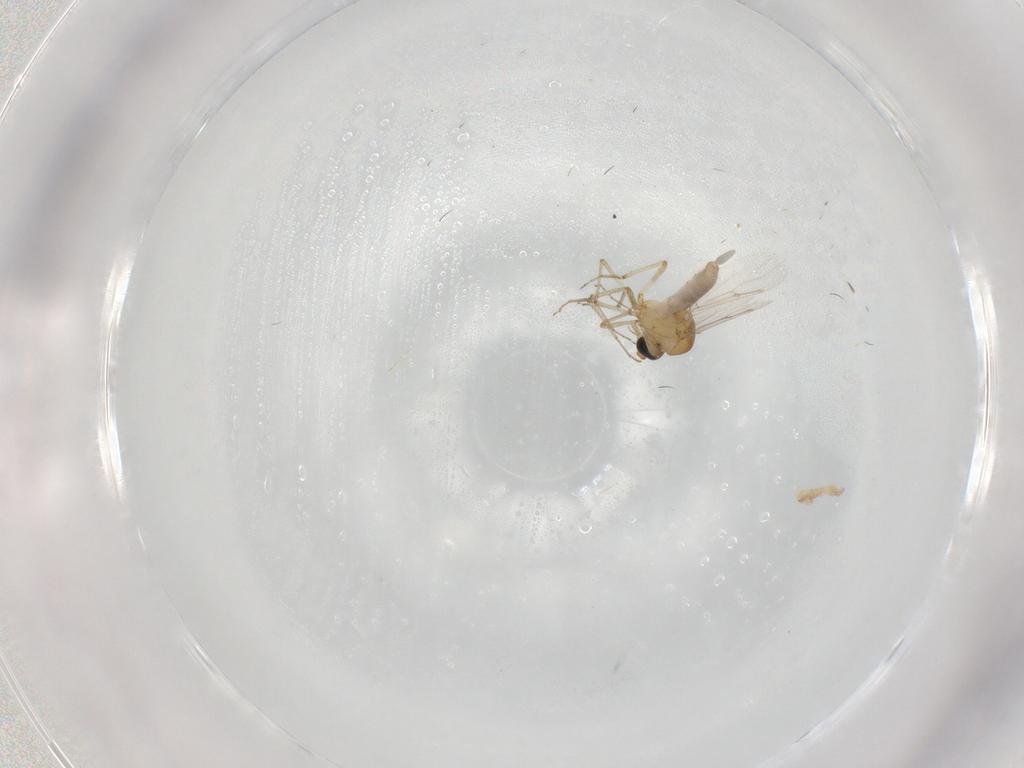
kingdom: Animalia
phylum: Arthropoda
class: Insecta
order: Diptera
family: Ceratopogonidae
